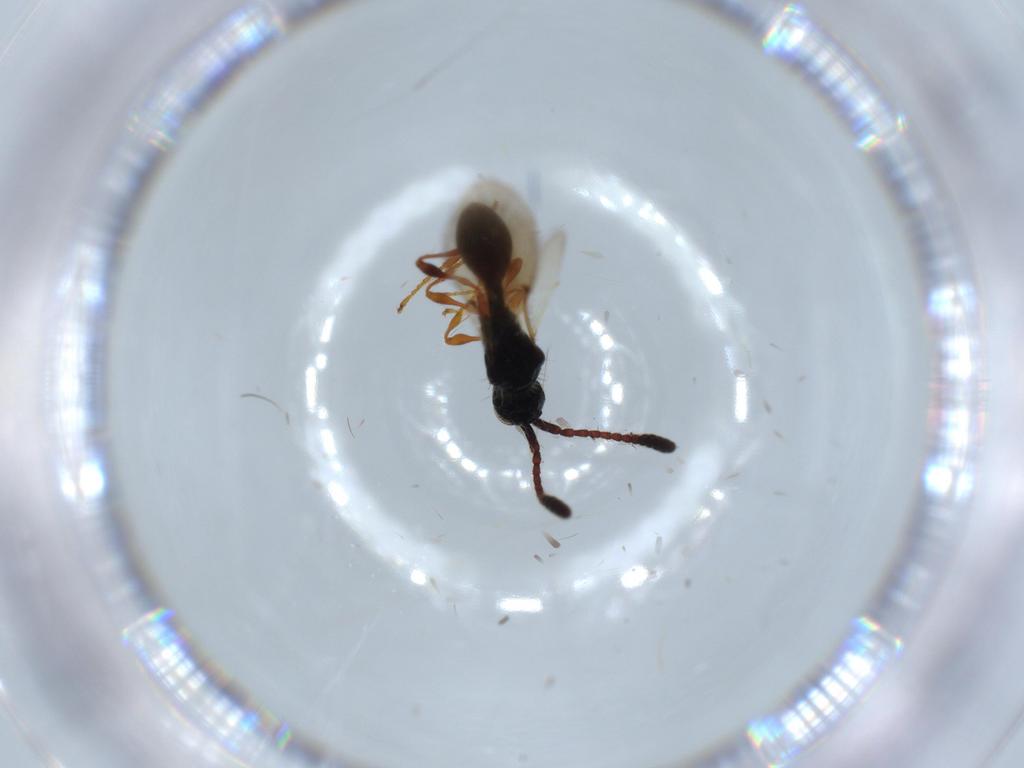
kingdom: Animalia
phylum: Arthropoda
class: Insecta
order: Hymenoptera
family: Diapriidae
